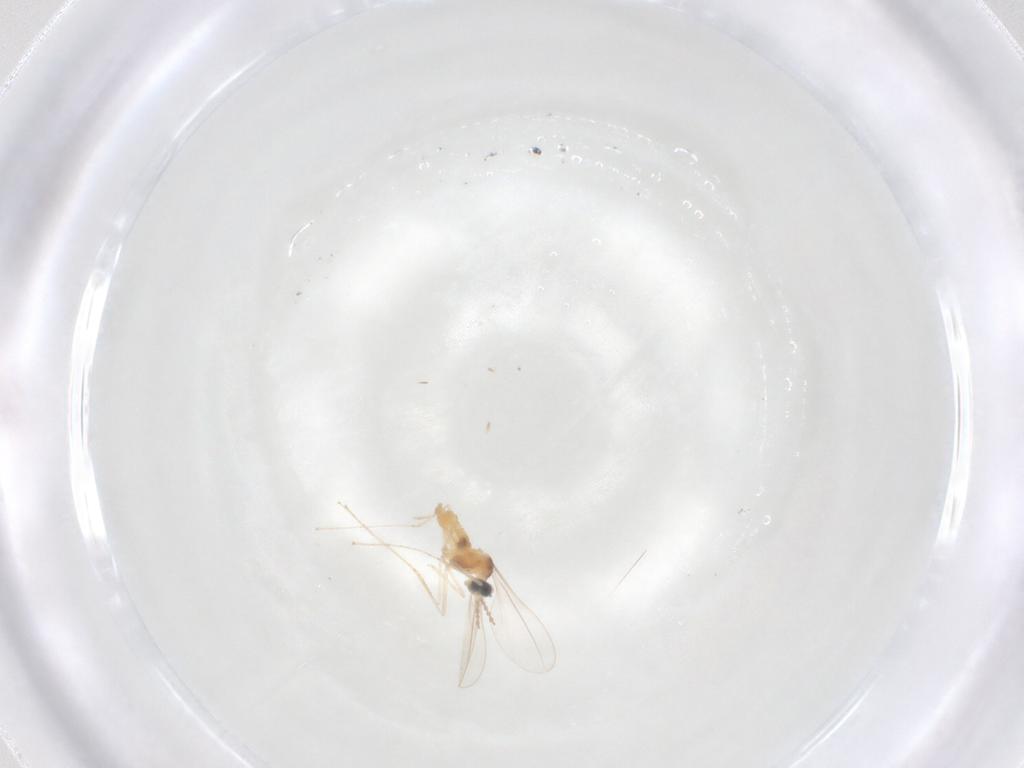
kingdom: Animalia
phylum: Arthropoda
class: Insecta
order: Diptera
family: Cecidomyiidae
